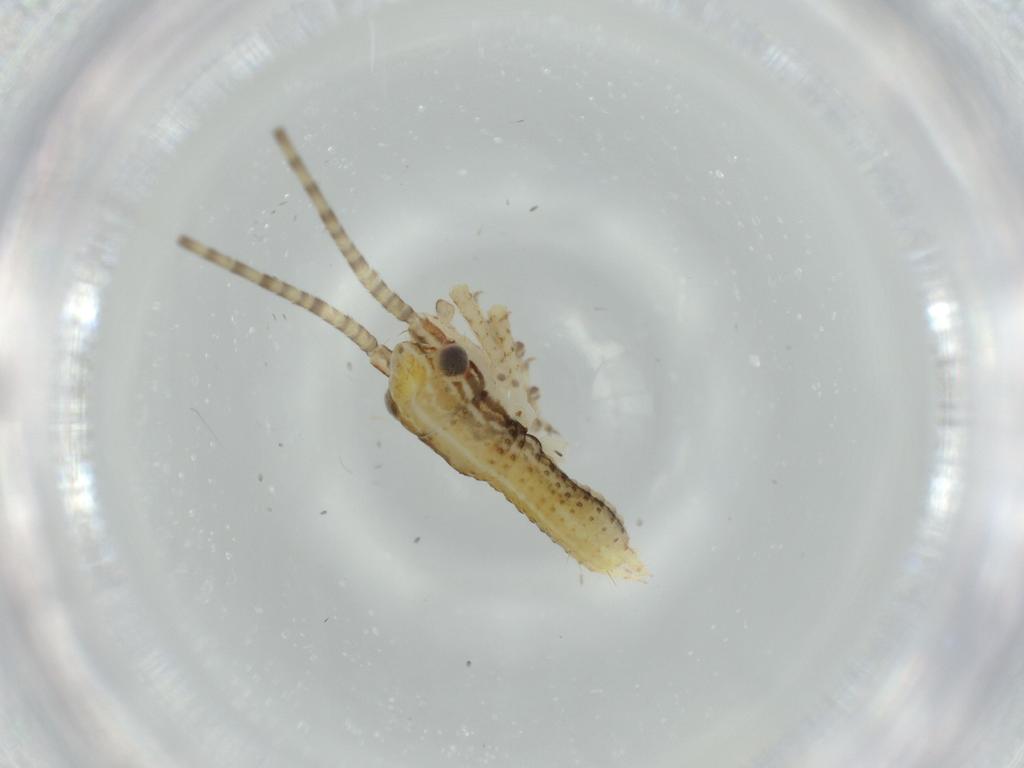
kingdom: Animalia
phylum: Arthropoda
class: Insecta
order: Orthoptera
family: Gryllidae
